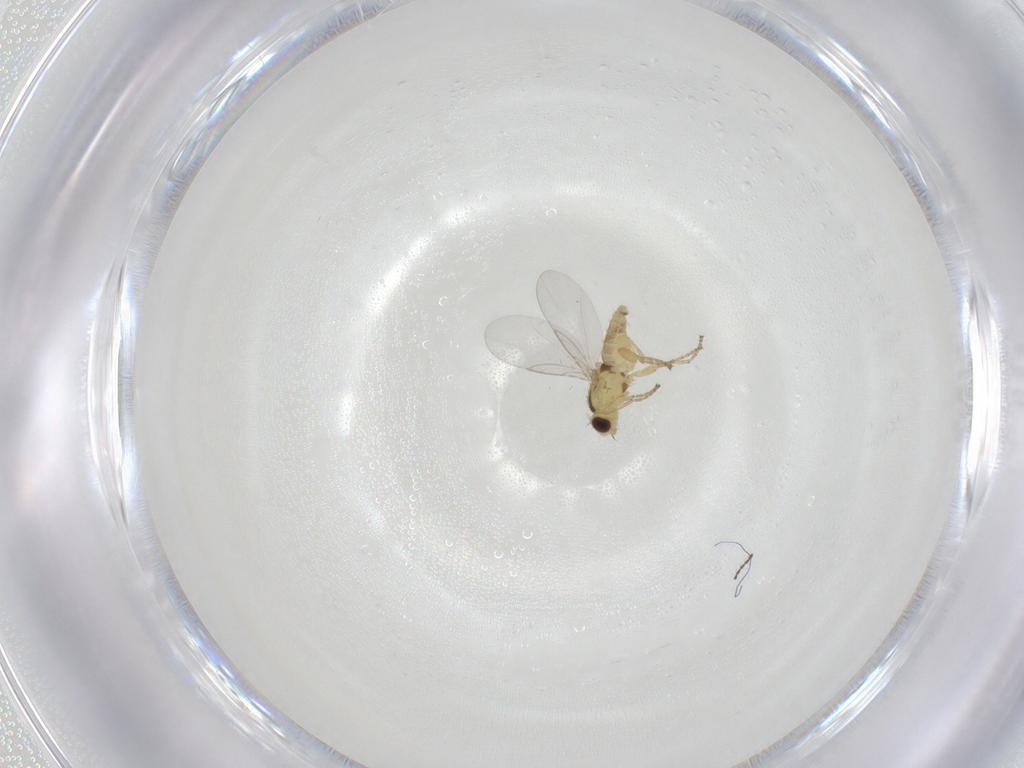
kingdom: Animalia
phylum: Arthropoda
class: Insecta
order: Diptera
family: Agromyzidae
